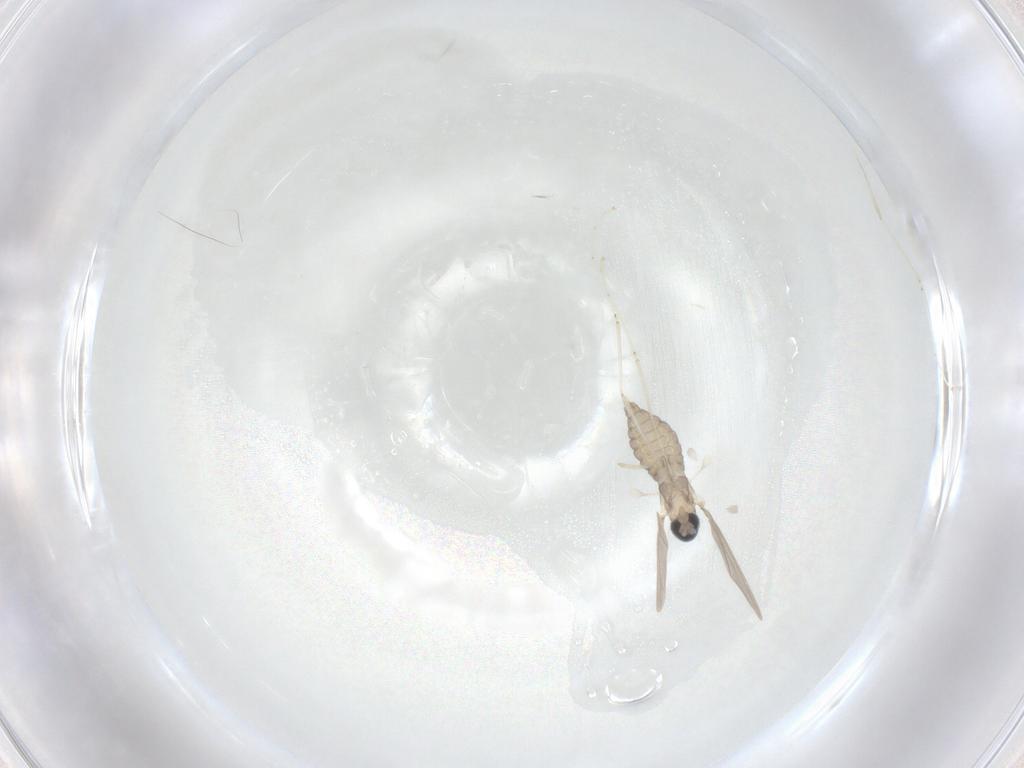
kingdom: Animalia
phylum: Arthropoda
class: Insecta
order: Diptera
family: Cecidomyiidae
